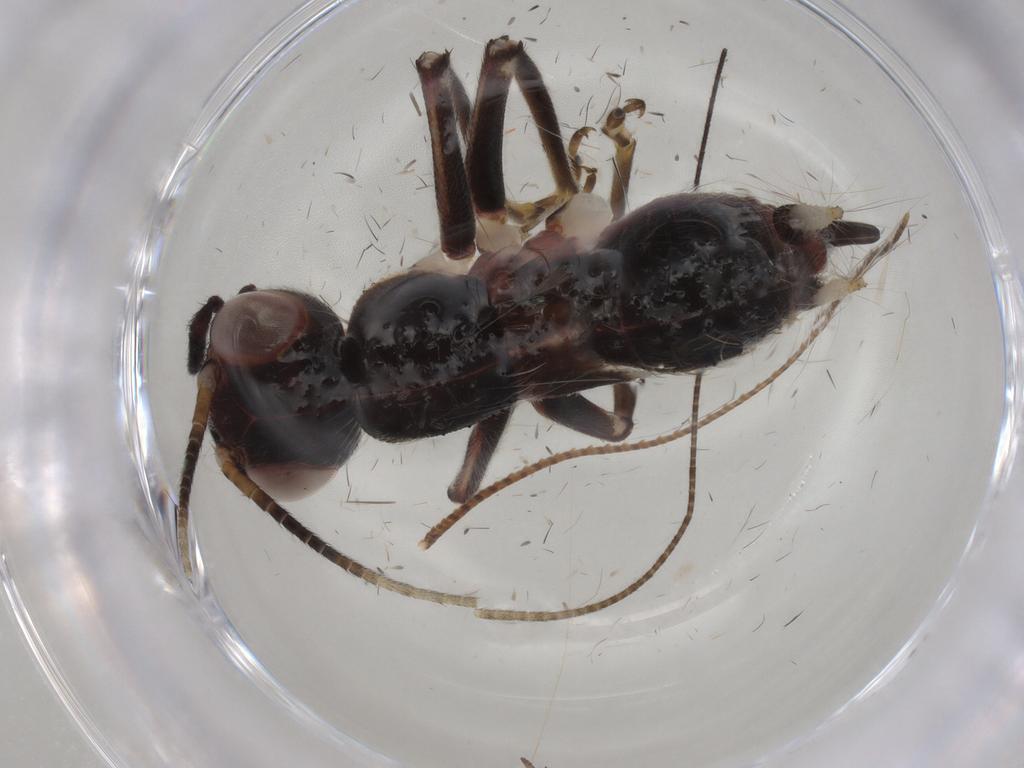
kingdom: Animalia
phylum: Arthropoda
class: Insecta
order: Orthoptera
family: Trigonidiidae
